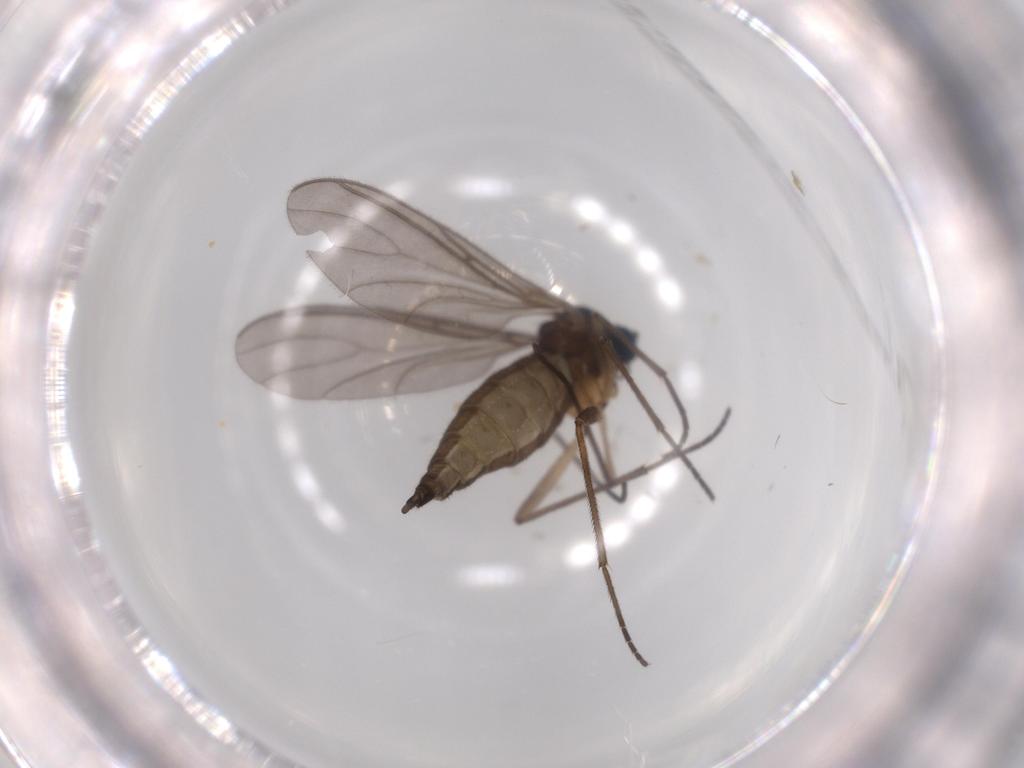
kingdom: Animalia
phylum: Arthropoda
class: Insecta
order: Diptera
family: Sciaridae
